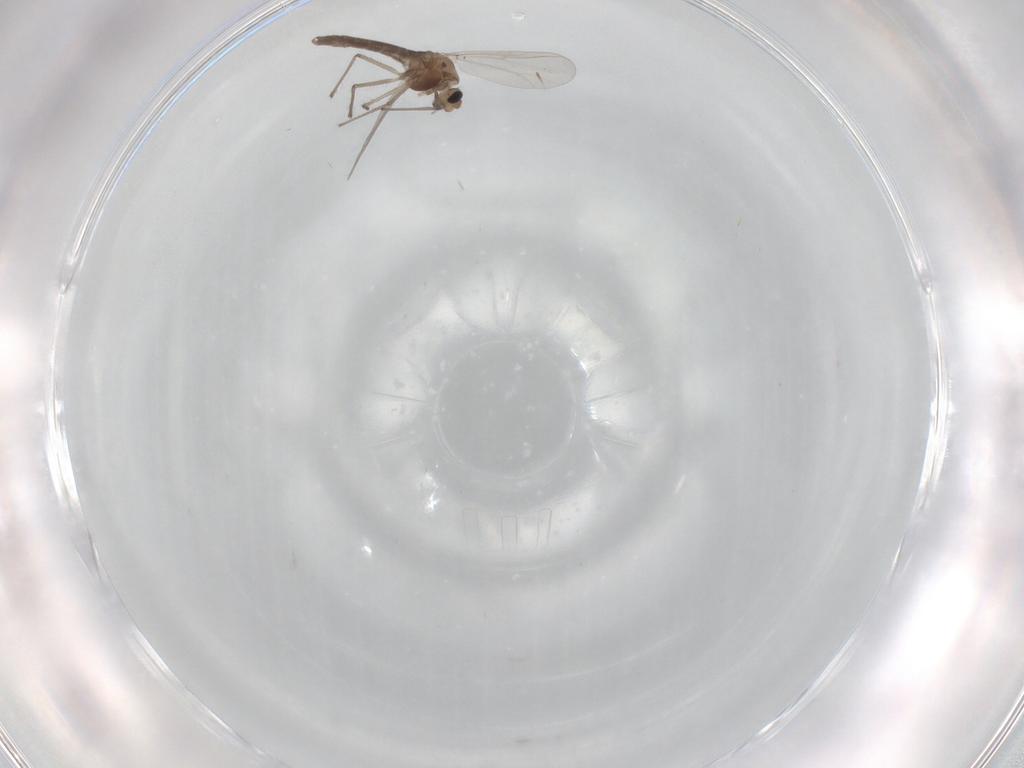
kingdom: Animalia
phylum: Arthropoda
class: Insecta
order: Diptera
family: Chironomidae
